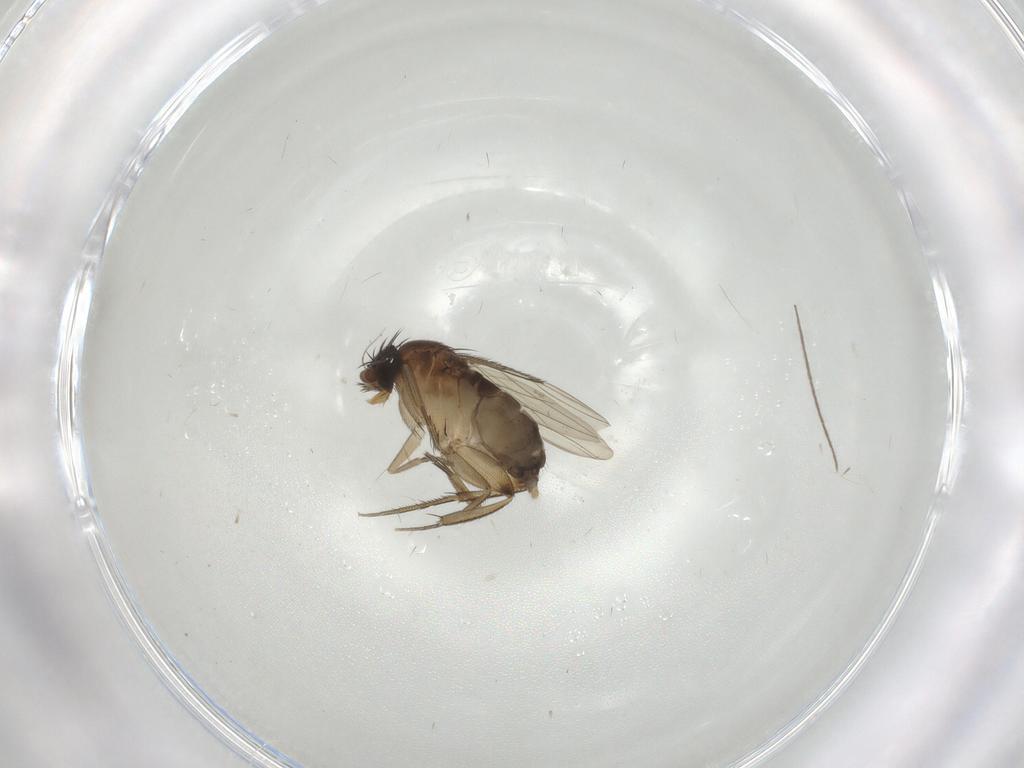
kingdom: Animalia
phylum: Arthropoda
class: Insecta
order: Diptera
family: Phoridae
